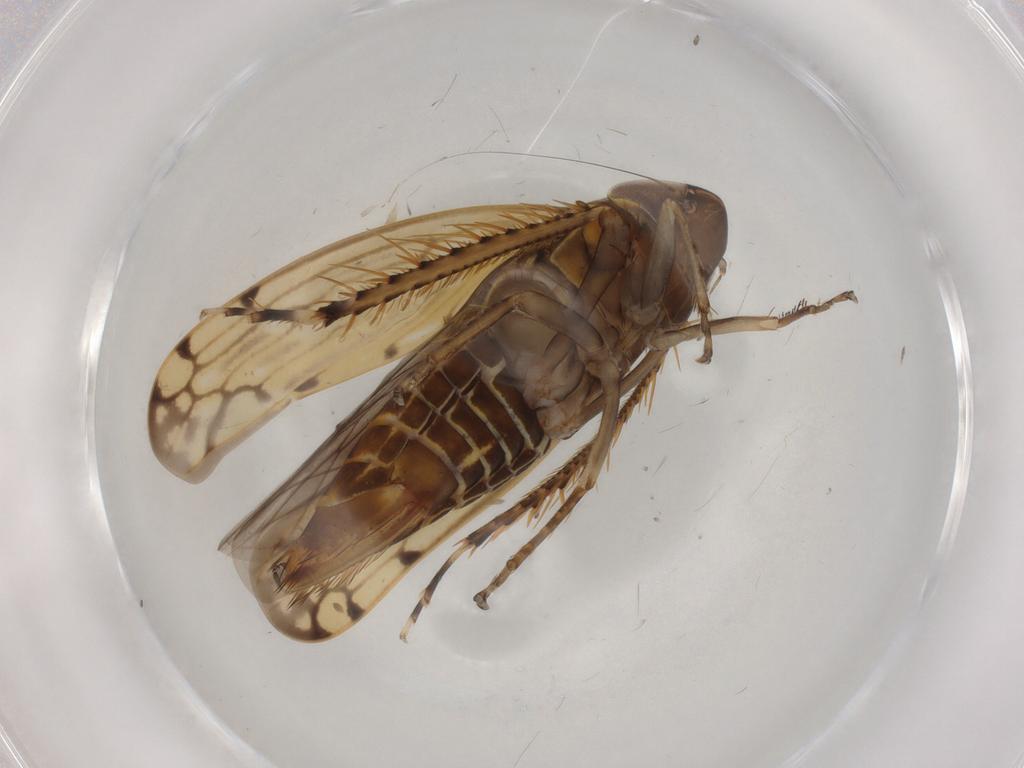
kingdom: Animalia
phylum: Arthropoda
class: Insecta
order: Hemiptera
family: Cicadellidae
